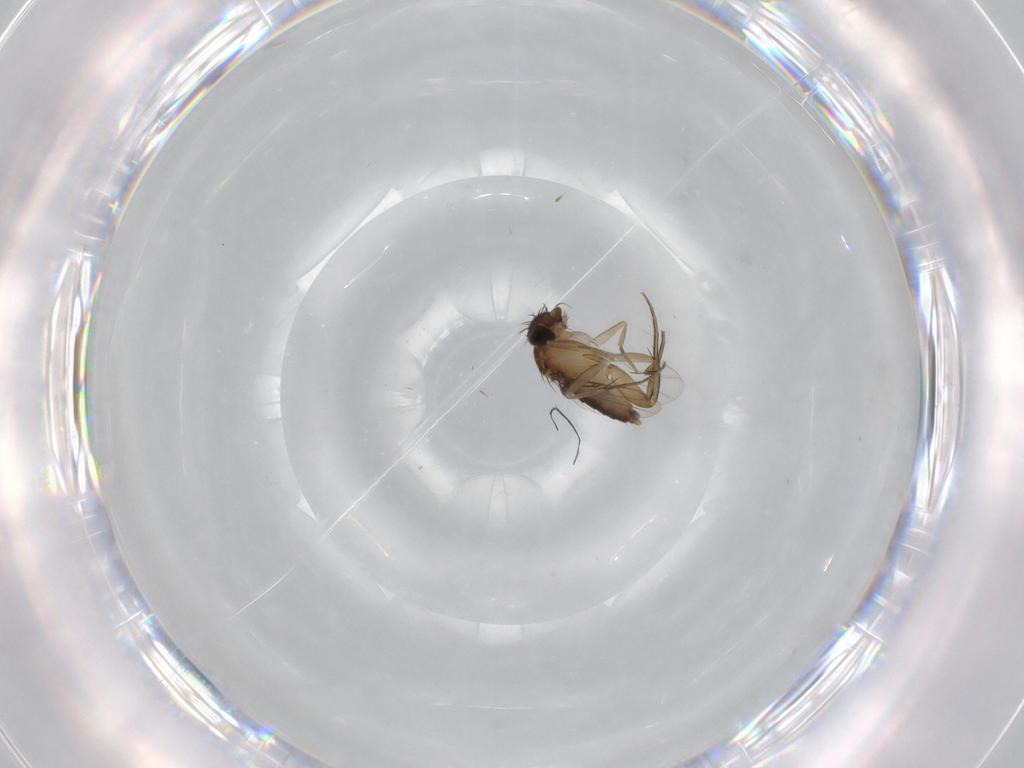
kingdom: Animalia
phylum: Arthropoda
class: Insecta
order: Diptera
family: Phoridae
